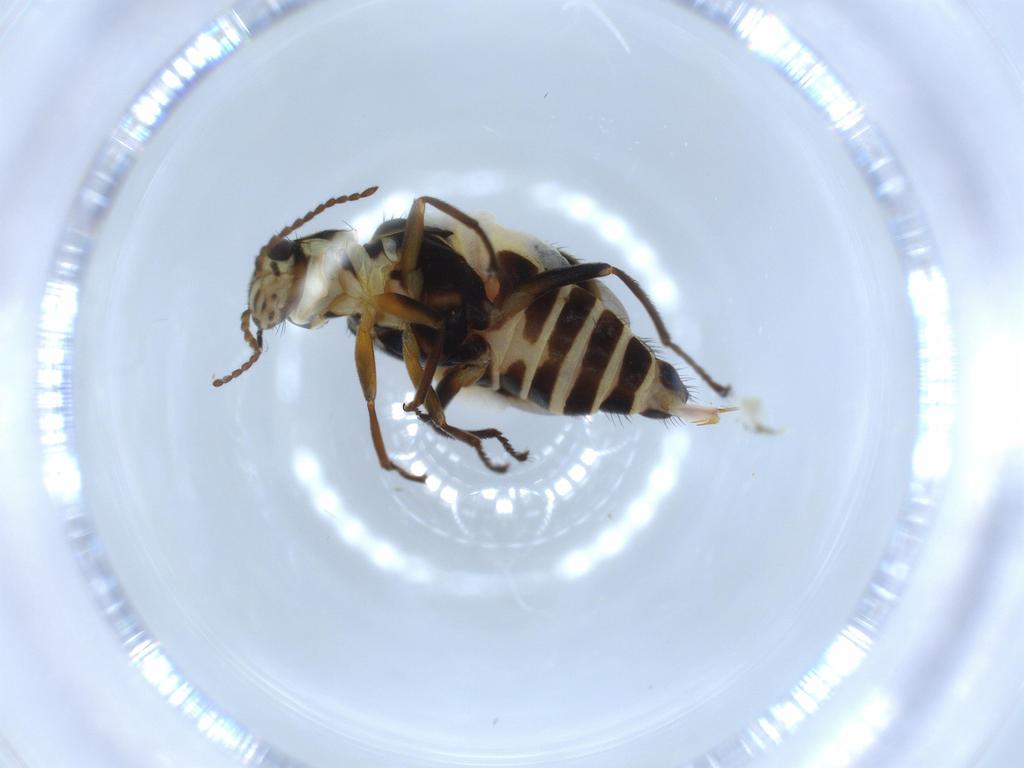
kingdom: Animalia
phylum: Arthropoda
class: Insecta
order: Coleoptera
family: Melyridae
